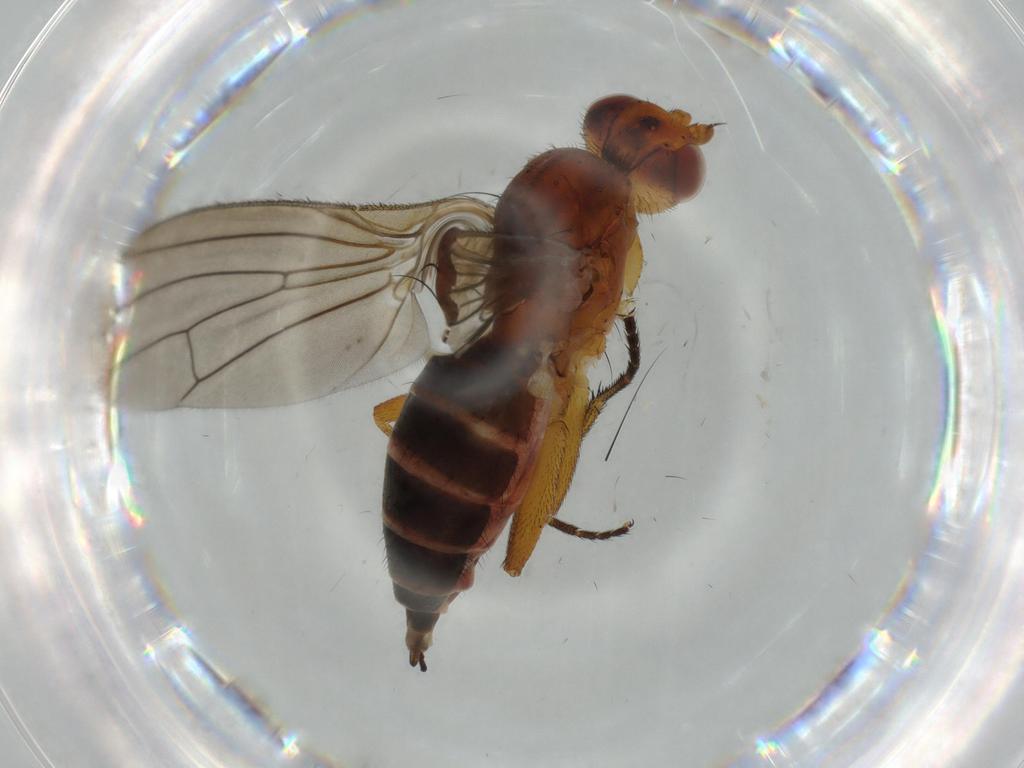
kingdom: Animalia
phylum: Arthropoda
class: Insecta
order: Diptera
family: Heleomyzidae
